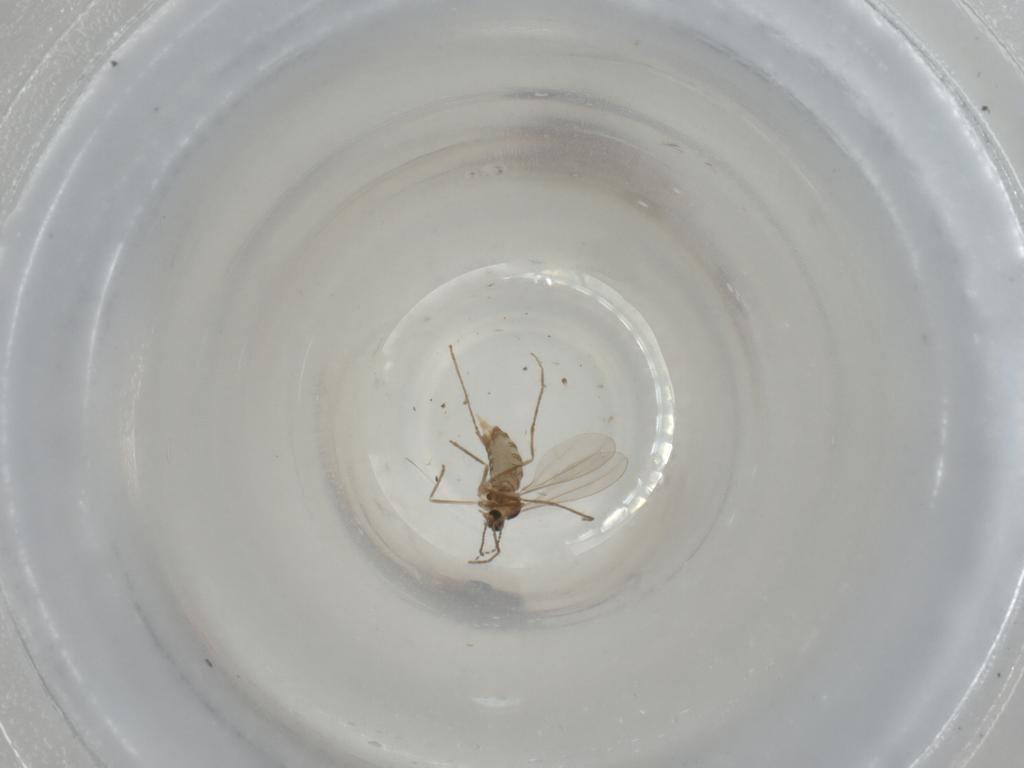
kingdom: Animalia
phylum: Arthropoda
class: Insecta
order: Diptera
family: Cecidomyiidae
